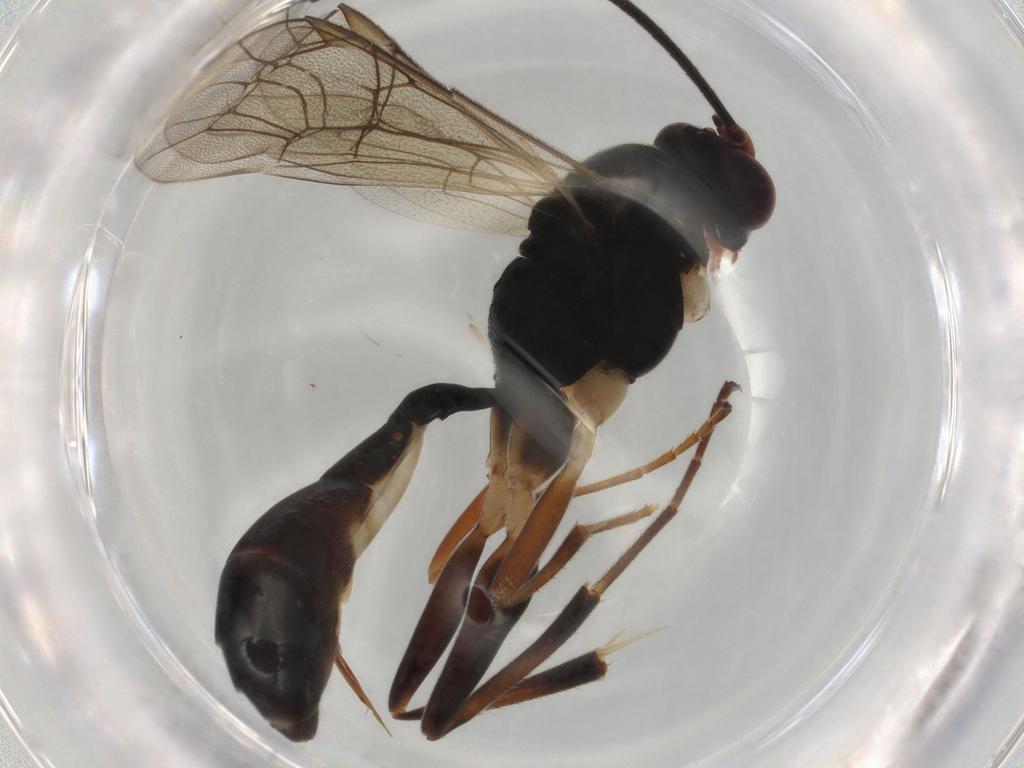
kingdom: Animalia
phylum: Arthropoda
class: Insecta
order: Hymenoptera
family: Ichneumonidae
